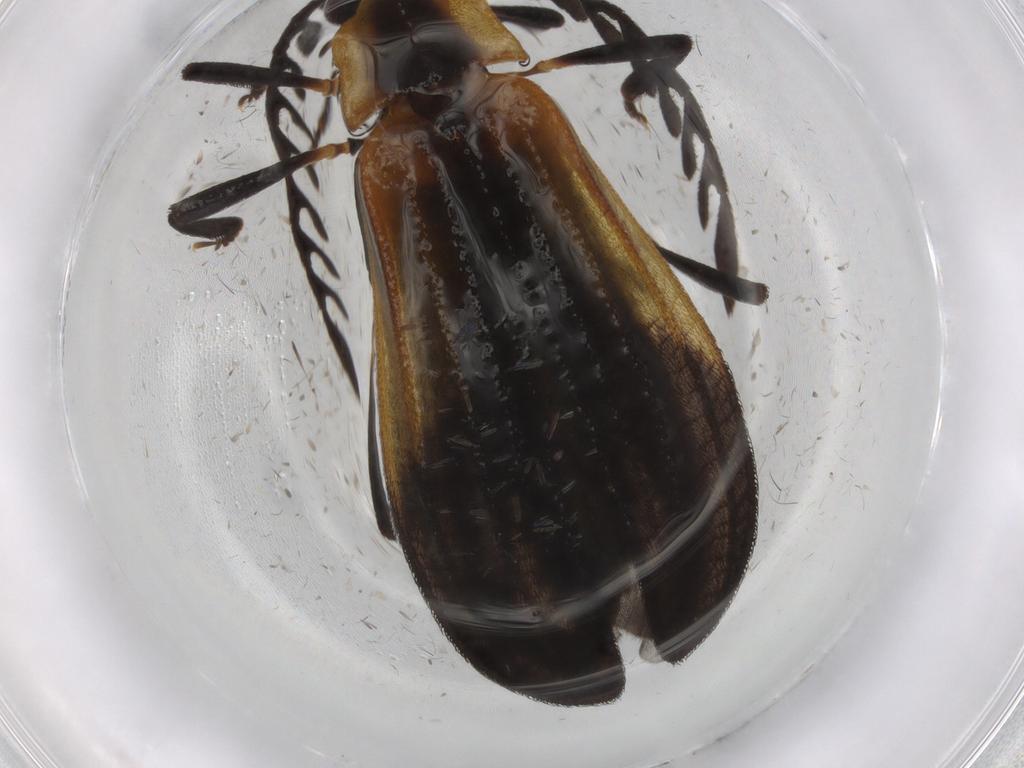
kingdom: Animalia
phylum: Arthropoda
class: Insecta
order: Coleoptera
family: Lycidae
